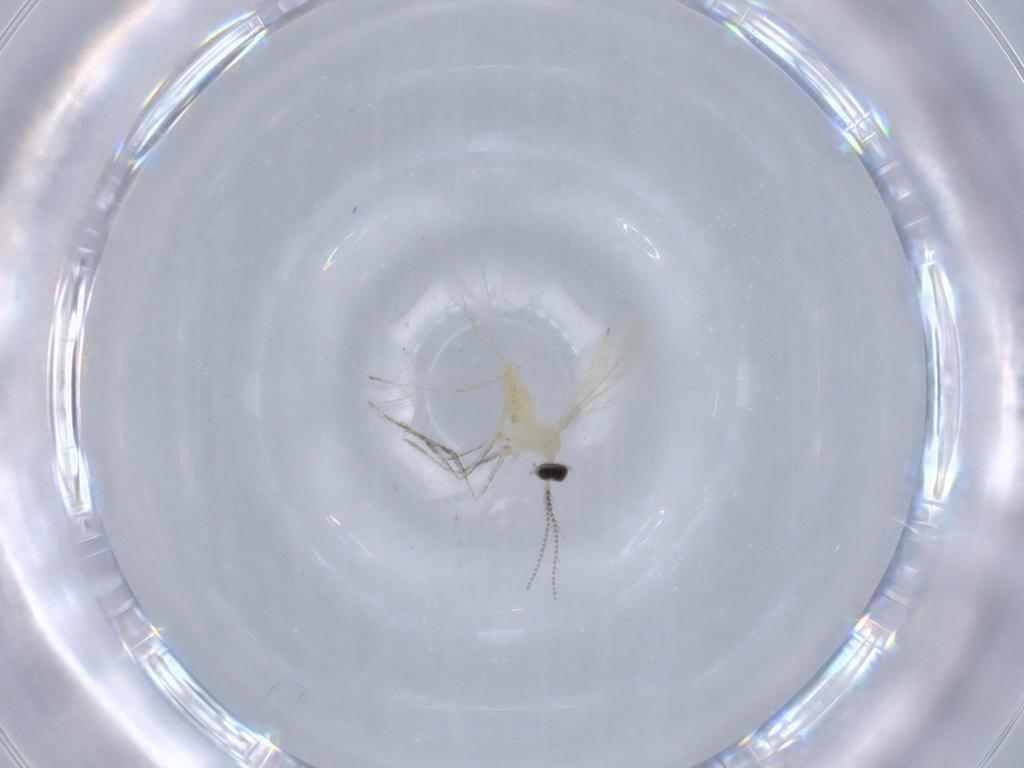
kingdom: Animalia
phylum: Arthropoda
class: Insecta
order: Diptera
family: Cecidomyiidae
